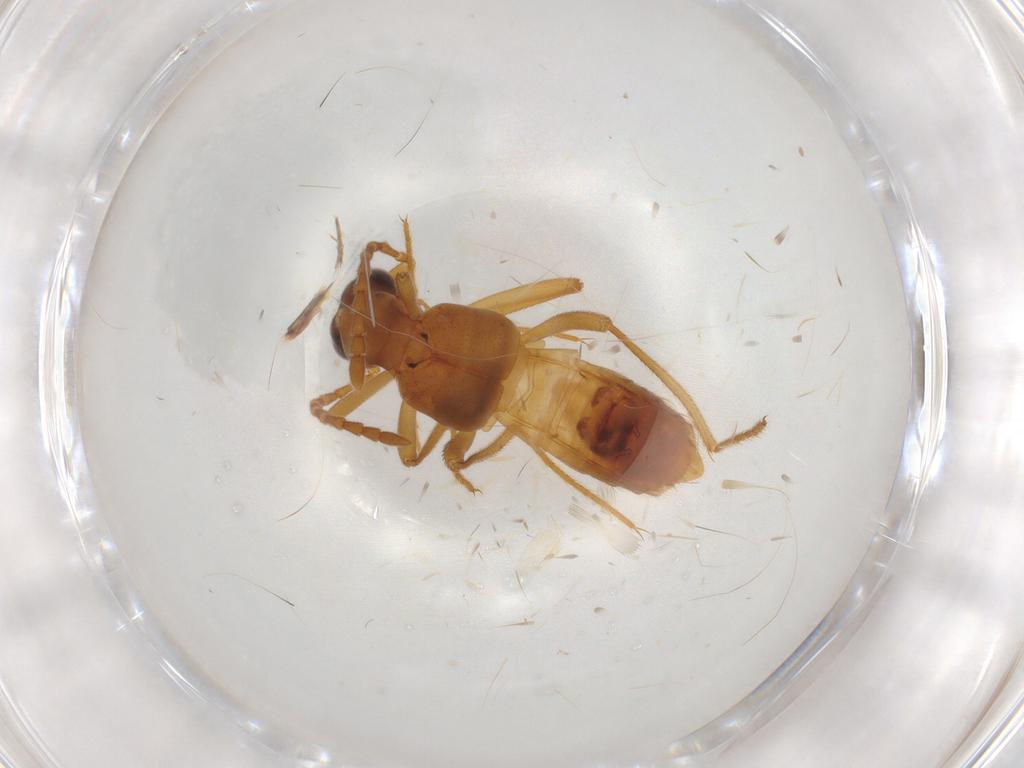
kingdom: Animalia
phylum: Arthropoda
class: Insecta
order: Coleoptera
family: Staphylinidae
